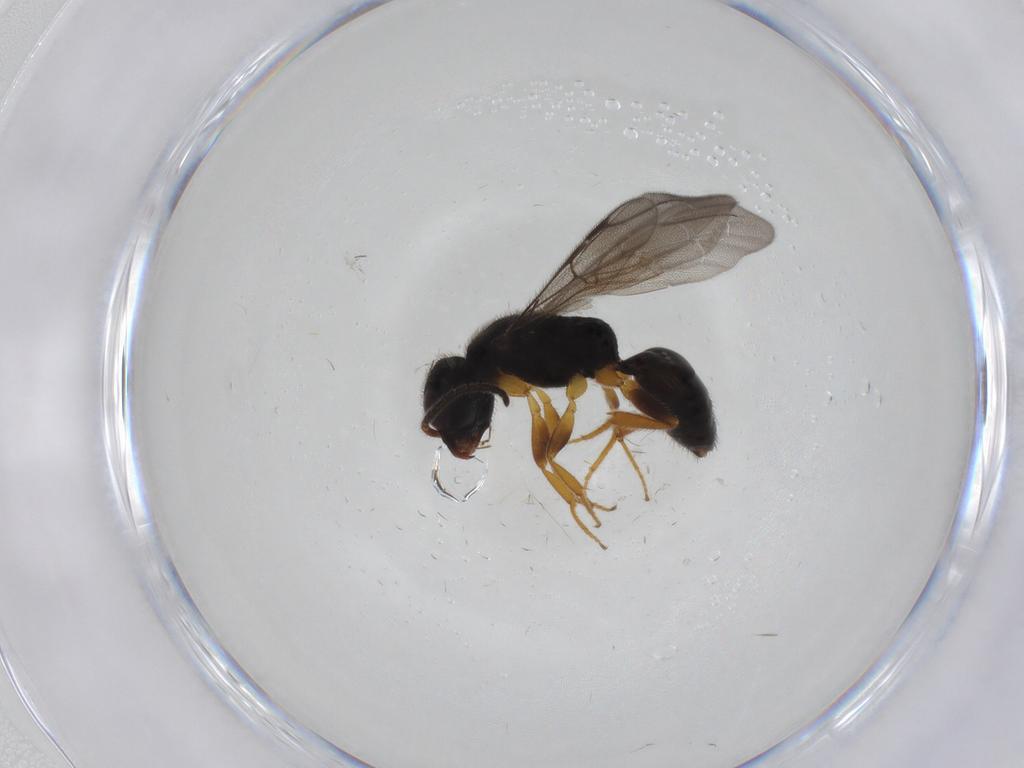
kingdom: Animalia
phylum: Arthropoda
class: Insecta
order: Hymenoptera
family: Bethylidae
